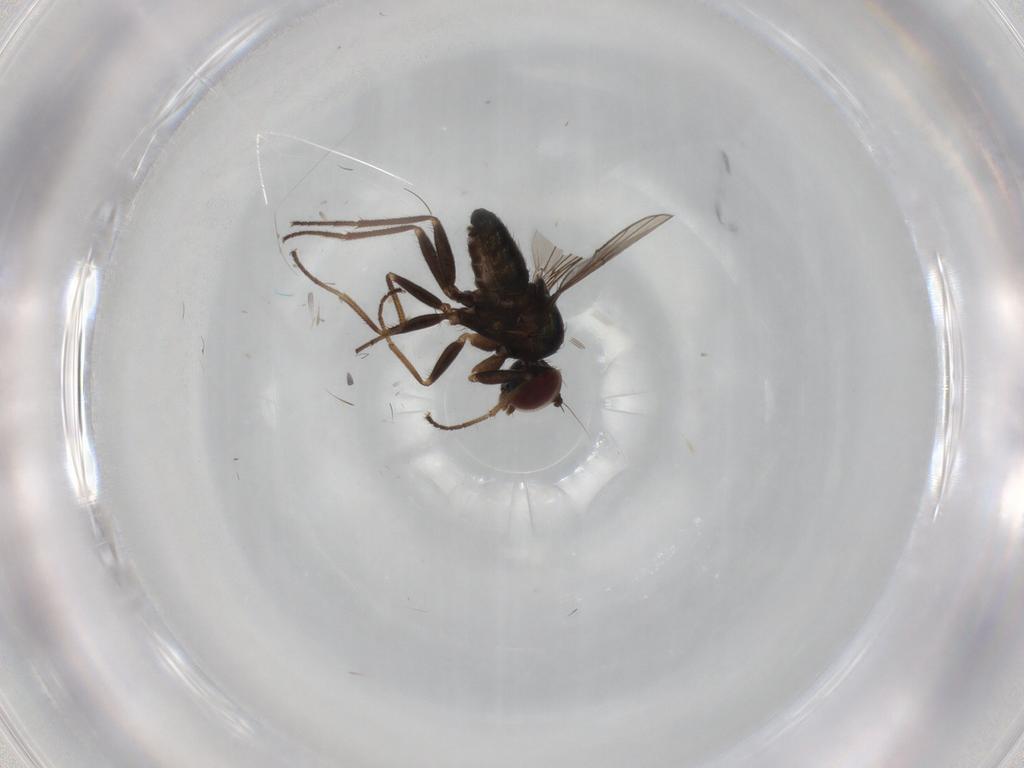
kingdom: Animalia
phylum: Arthropoda
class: Insecta
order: Diptera
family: Dolichopodidae
